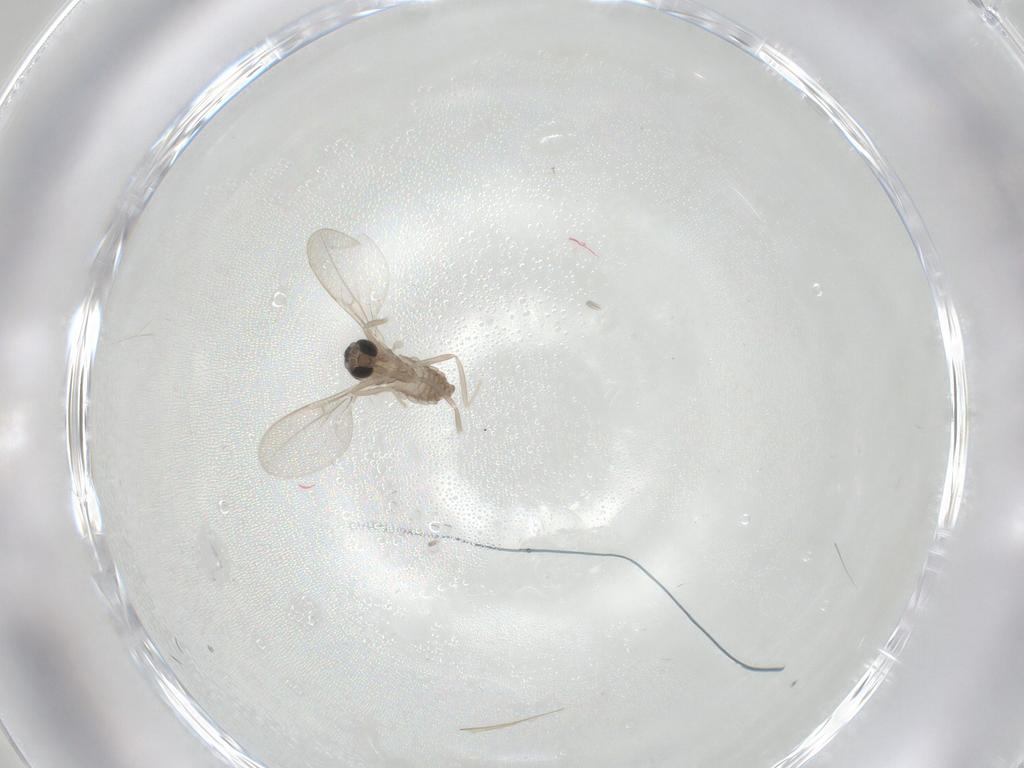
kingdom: Animalia
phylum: Arthropoda
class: Insecta
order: Diptera
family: Cecidomyiidae
